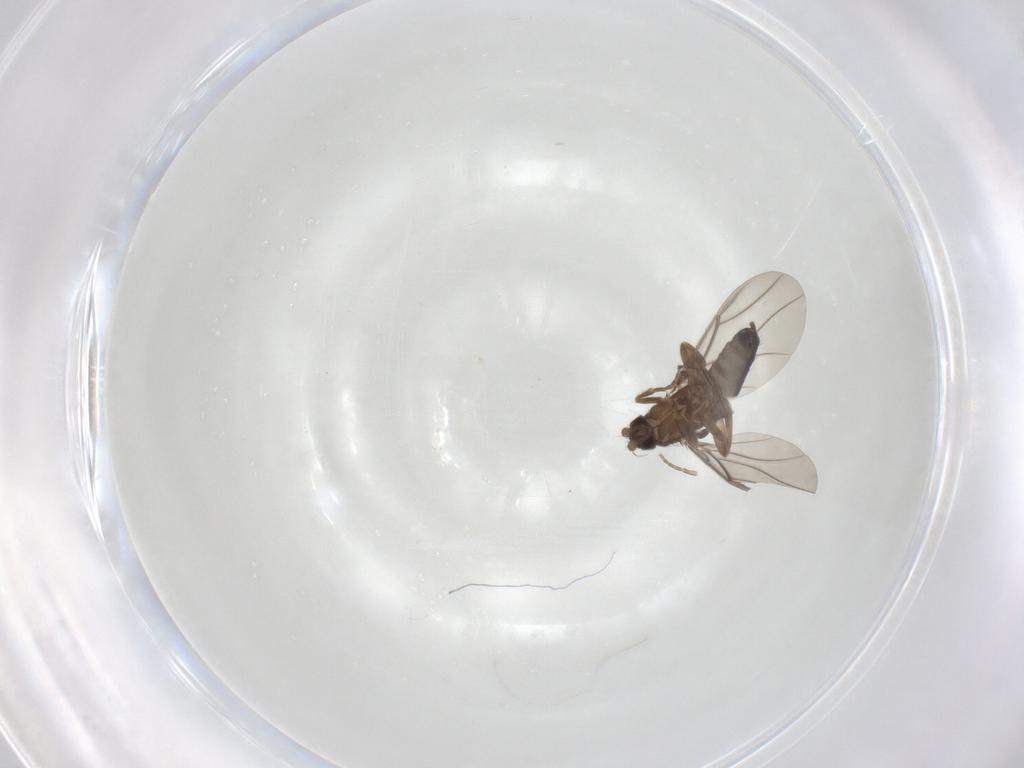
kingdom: Animalia
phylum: Arthropoda
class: Insecta
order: Diptera
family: Phoridae
